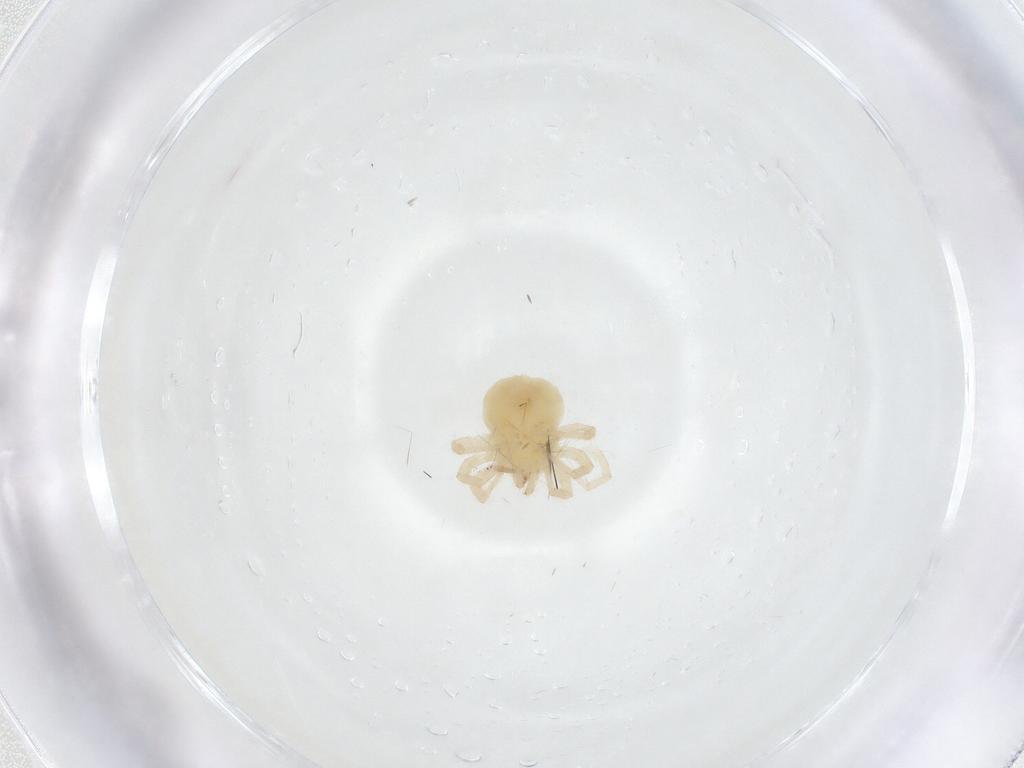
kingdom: Animalia
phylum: Arthropoda
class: Arachnida
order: Trombidiformes
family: Anystidae
